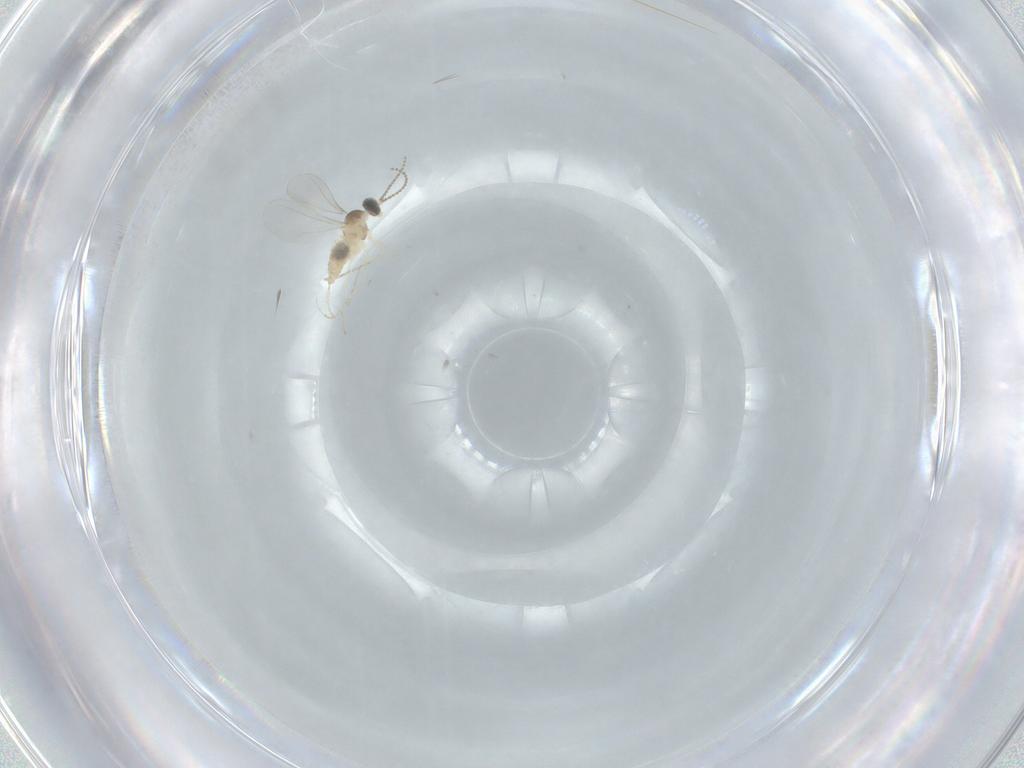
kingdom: Animalia
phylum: Arthropoda
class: Insecta
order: Diptera
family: Cecidomyiidae
